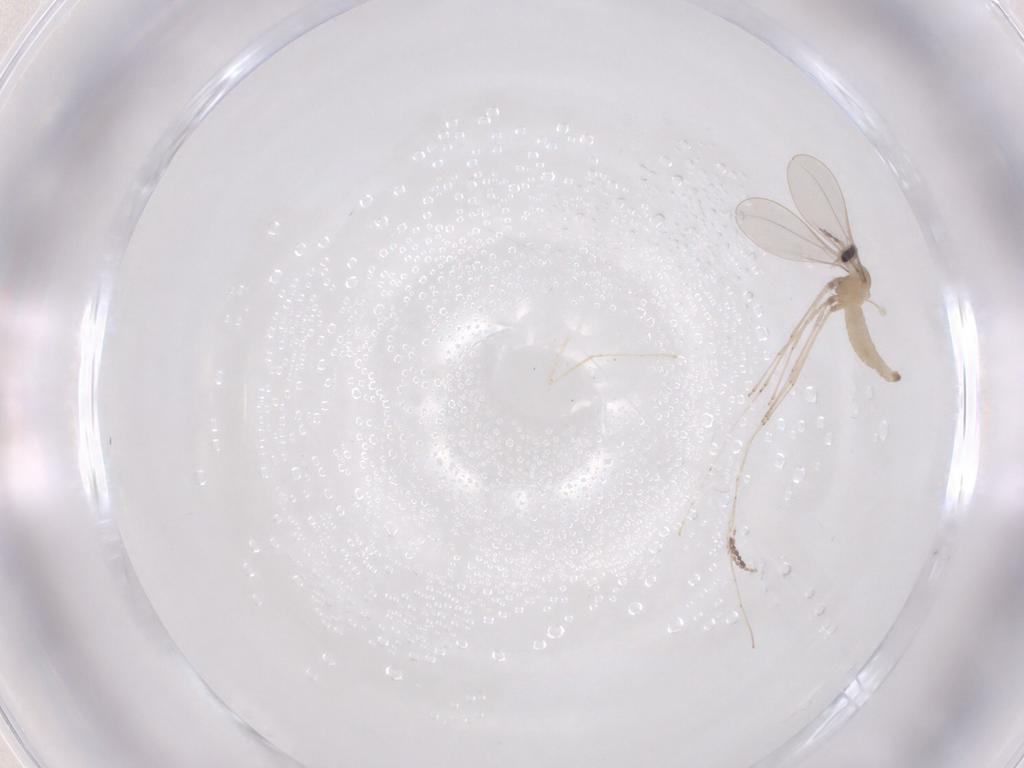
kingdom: Animalia
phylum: Arthropoda
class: Insecta
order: Diptera
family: Cecidomyiidae
